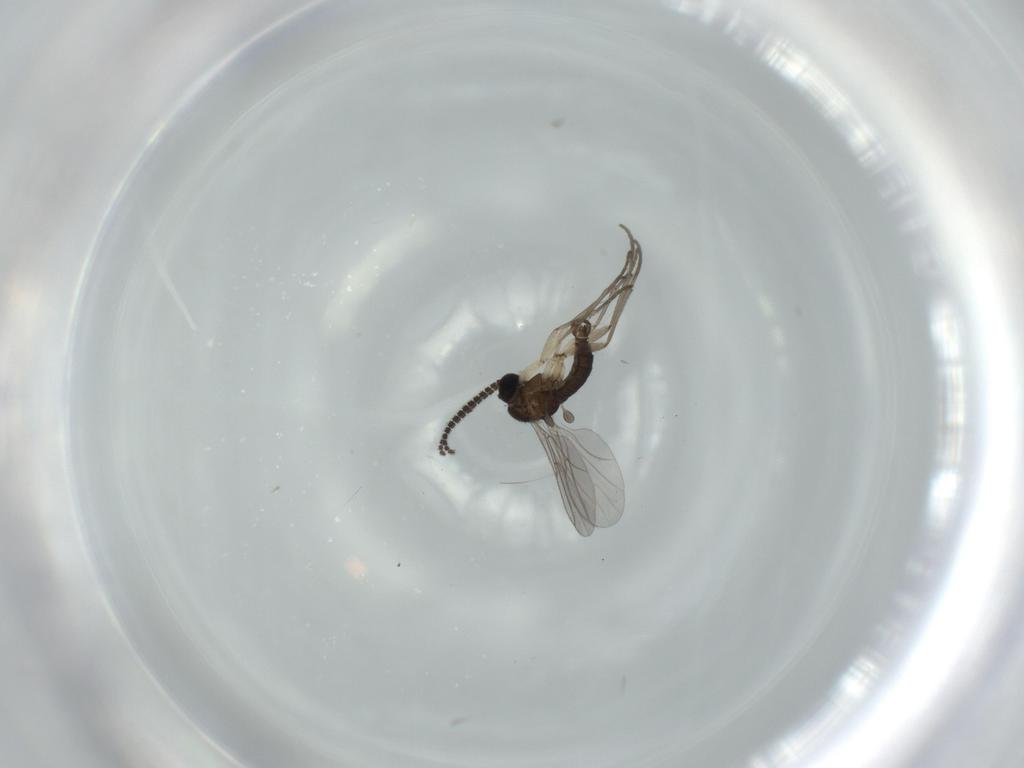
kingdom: Animalia
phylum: Arthropoda
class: Insecta
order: Diptera
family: Sciaridae
